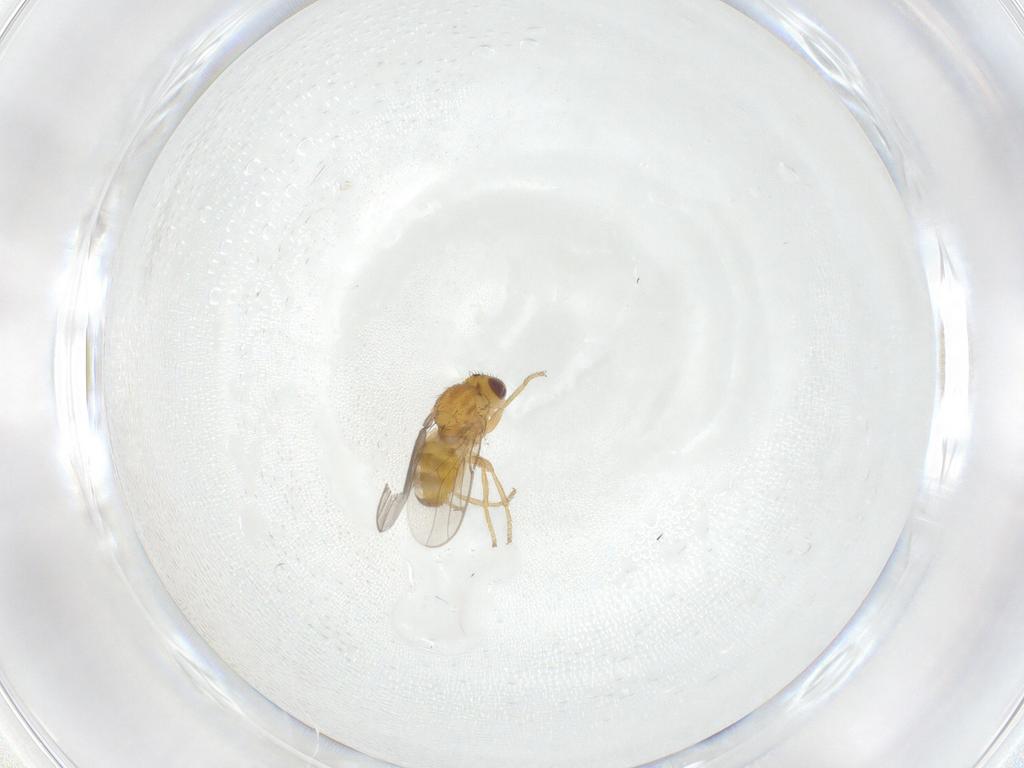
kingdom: Animalia
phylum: Arthropoda
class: Insecta
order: Diptera
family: Chloropidae
